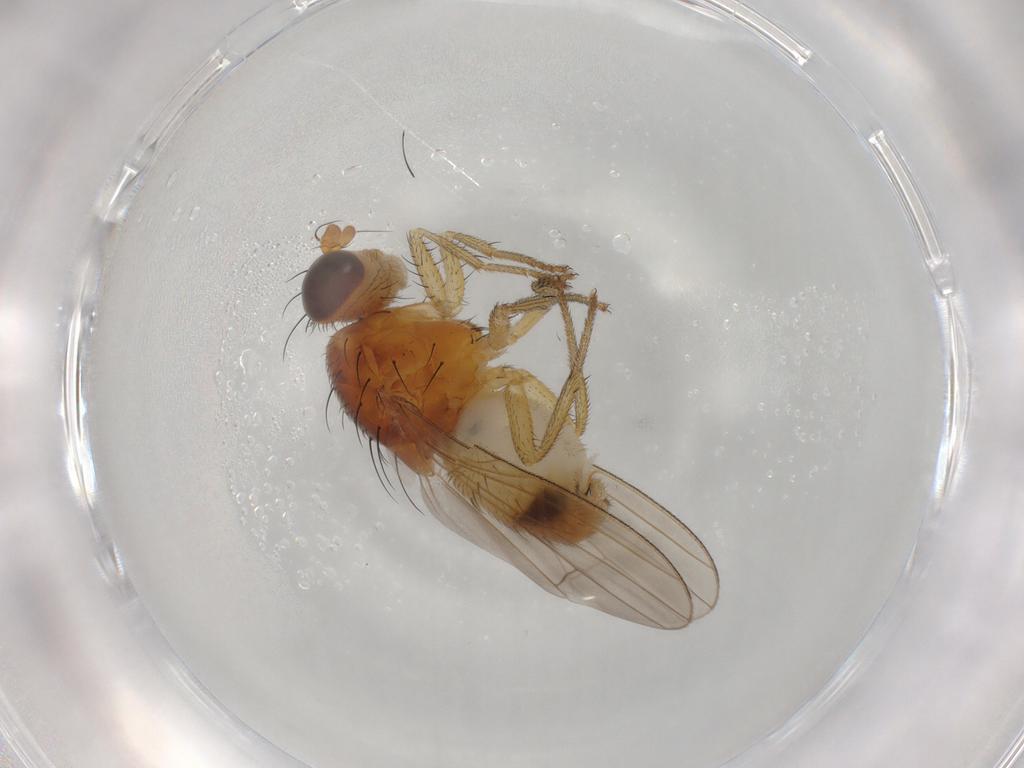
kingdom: Animalia
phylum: Arthropoda
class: Insecta
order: Diptera
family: Lauxaniidae
